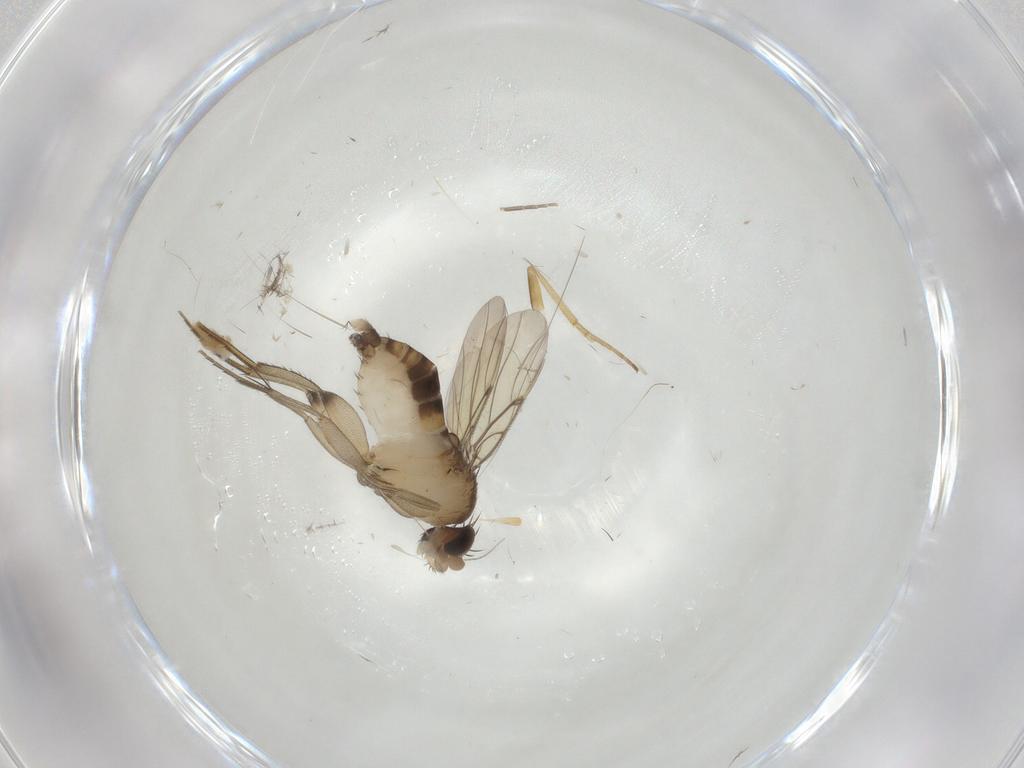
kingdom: Animalia
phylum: Arthropoda
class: Insecta
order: Diptera
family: Phoridae
